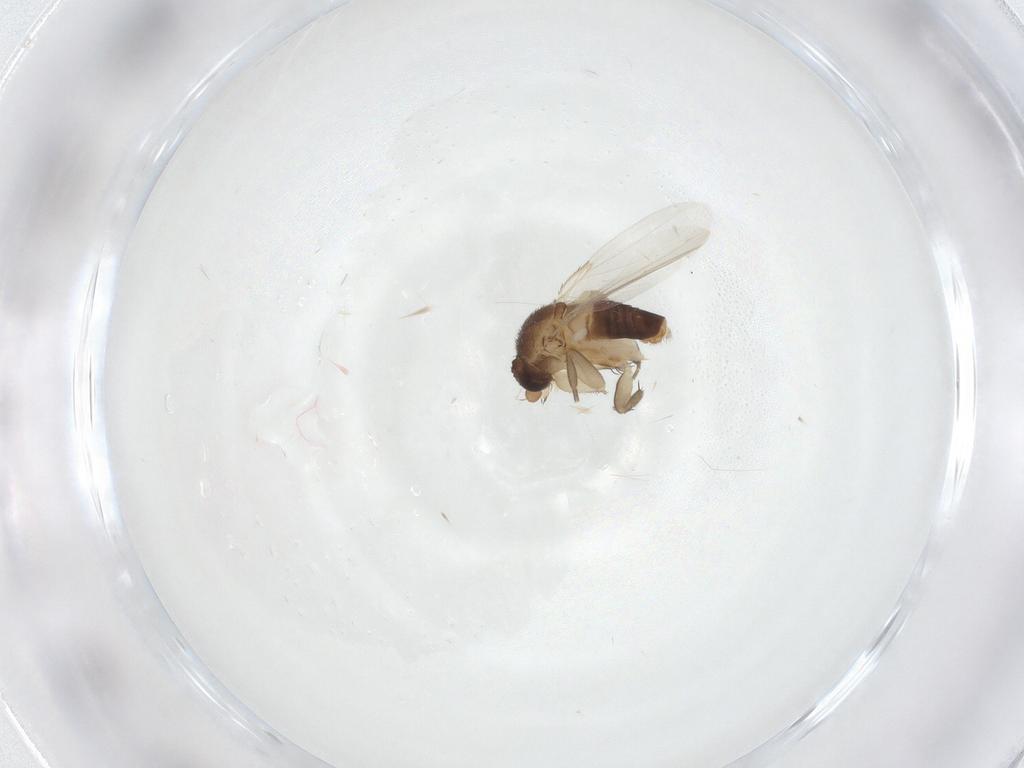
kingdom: Animalia
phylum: Arthropoda
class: Insecta
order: Diptera
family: Phoridae
